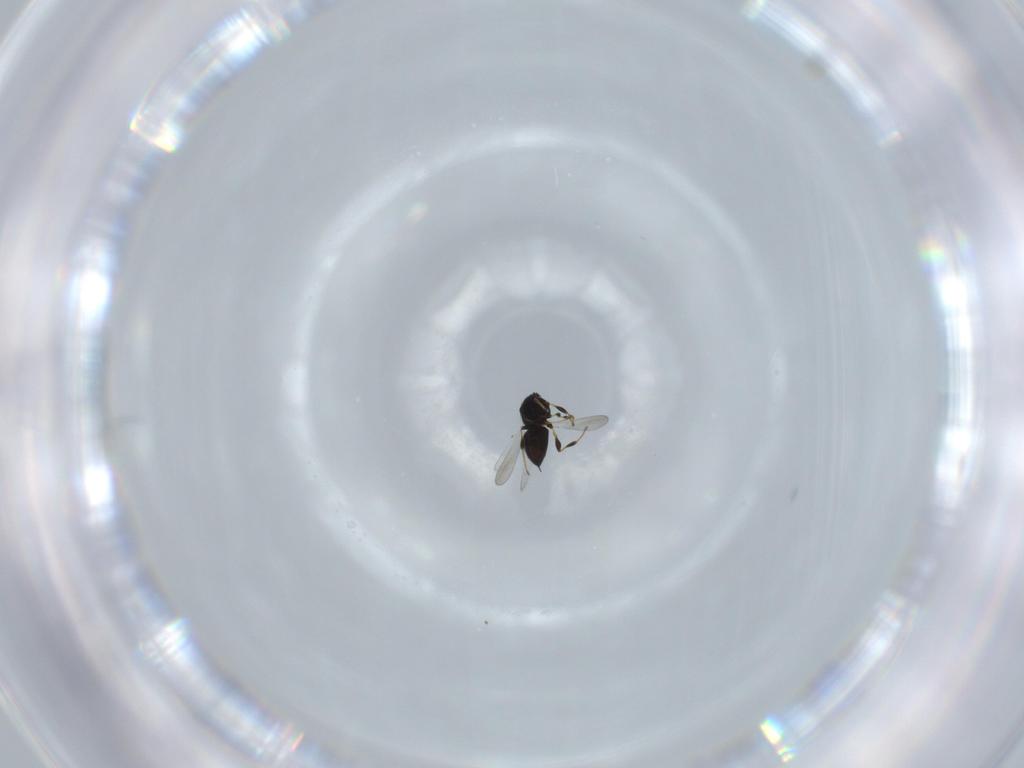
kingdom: Animalia
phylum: Arthropoda
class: Insecta
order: Hymenoptera
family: Platygastridae
